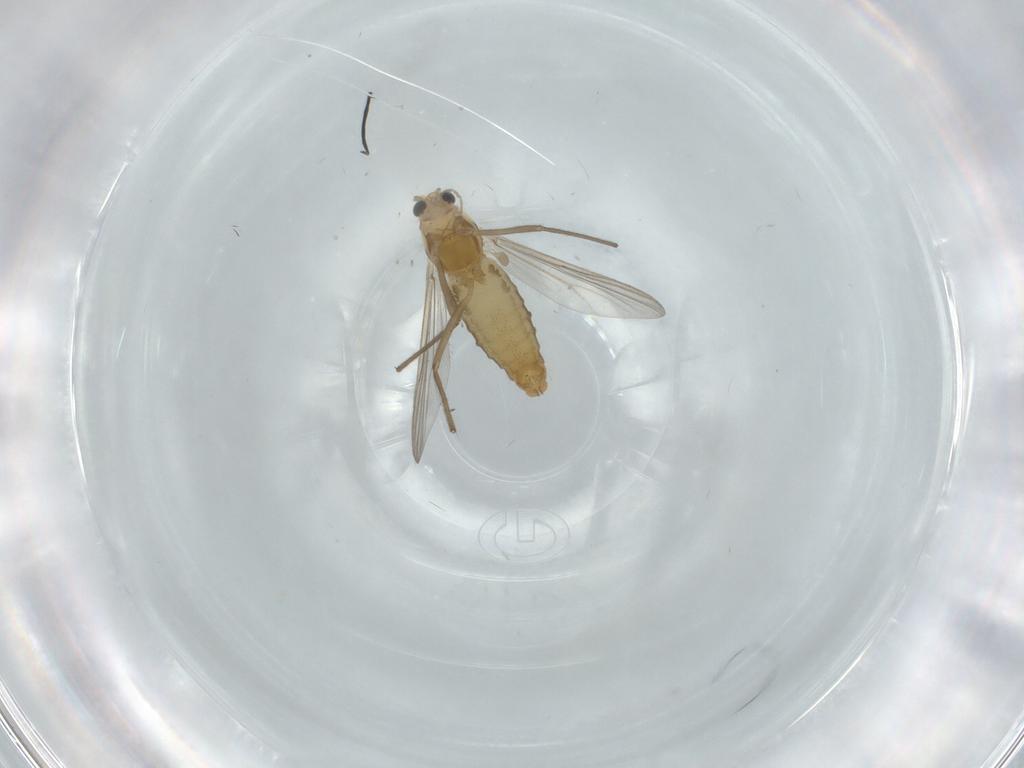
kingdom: Animalia
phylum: Arthropoda
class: Insecta
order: Diptera
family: Chironomidae
